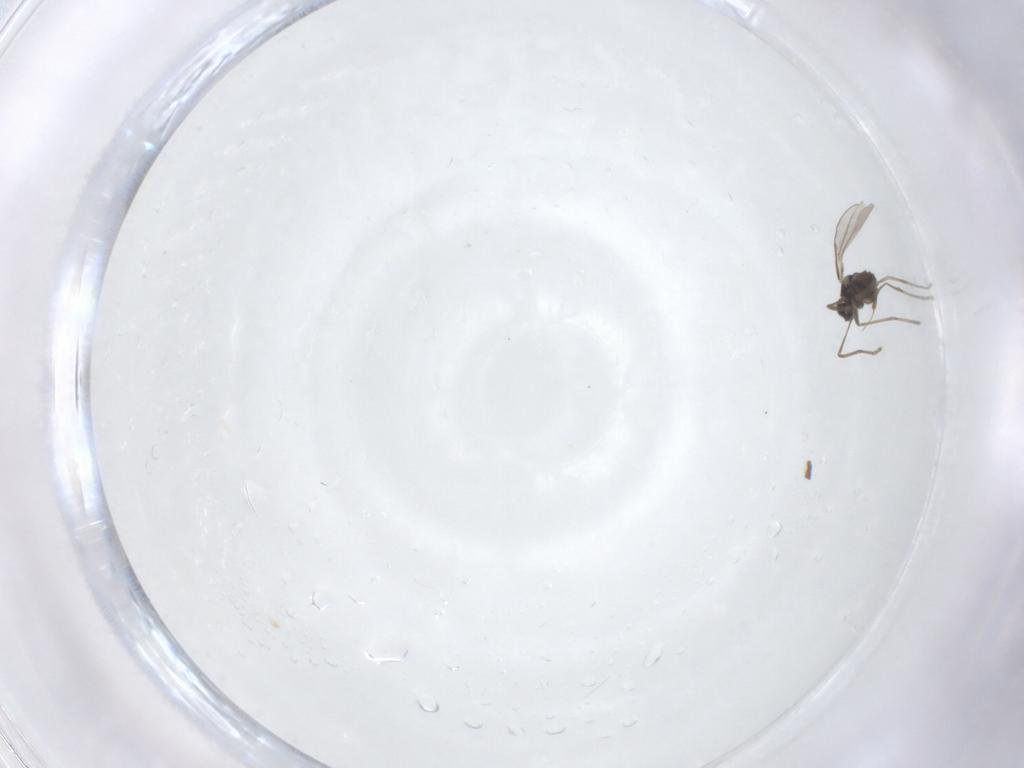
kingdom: Animalia
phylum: Arthropoda
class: Insecta
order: Diptera
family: Cecidomyiidae
